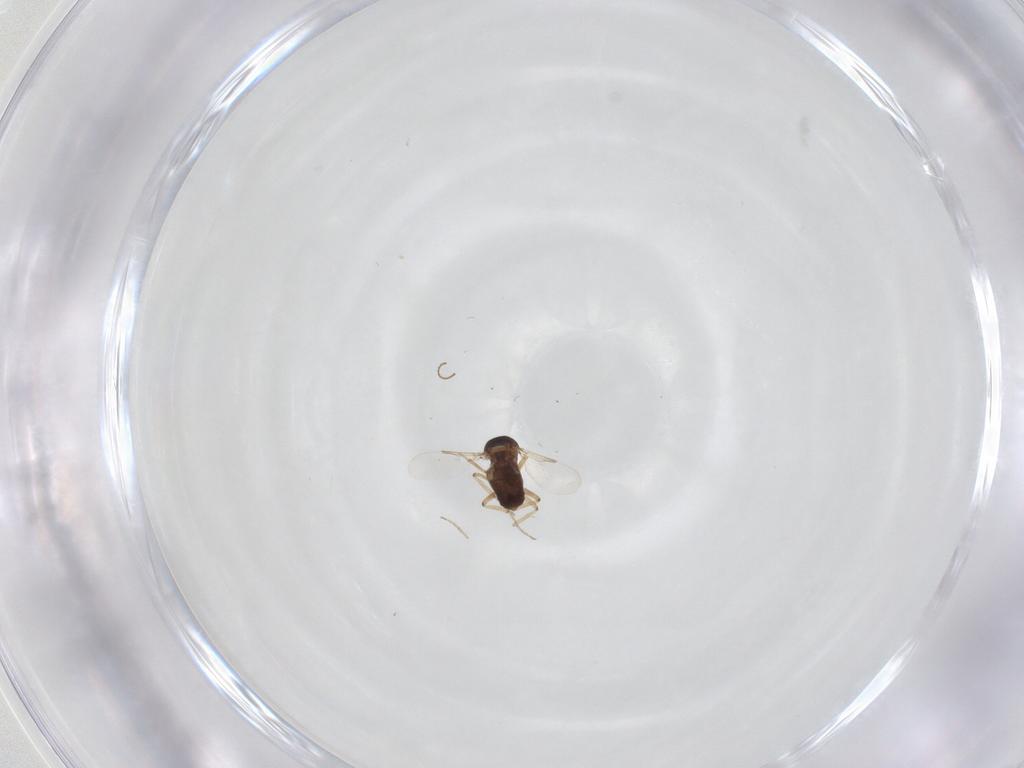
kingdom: Animalia
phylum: Arthropoda
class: Insecta
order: Diptera
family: Ceratopogonidae
